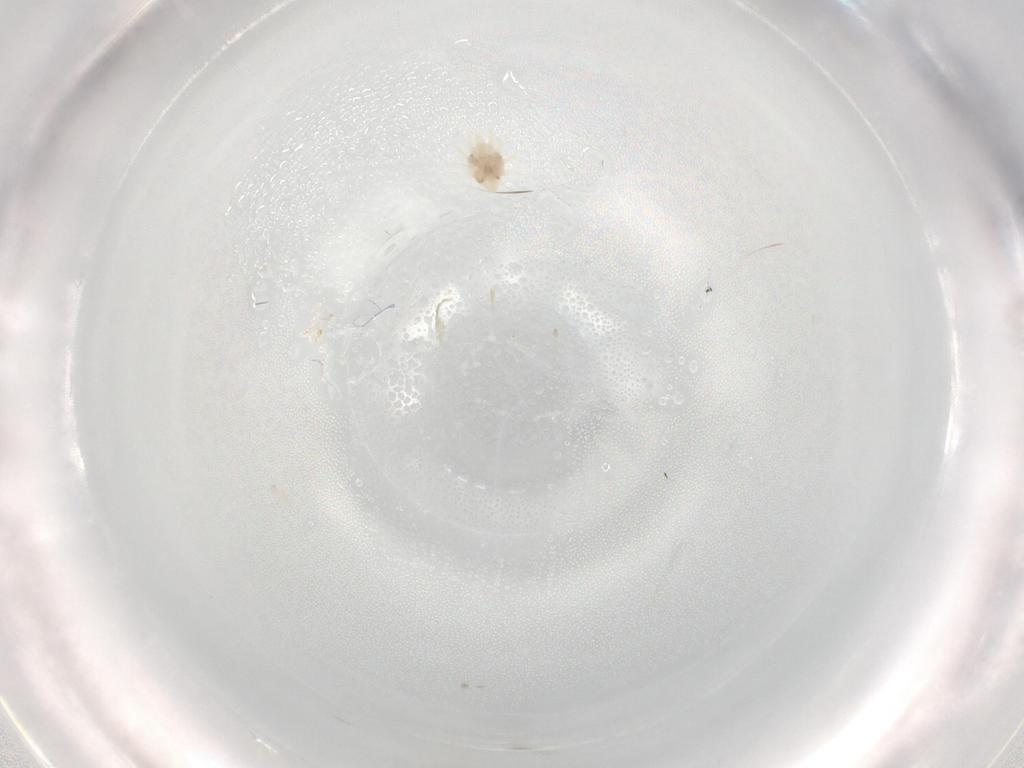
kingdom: Animalia
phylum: Arthropoda
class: Arachnida
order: Mesostigmata
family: Melicharidae
